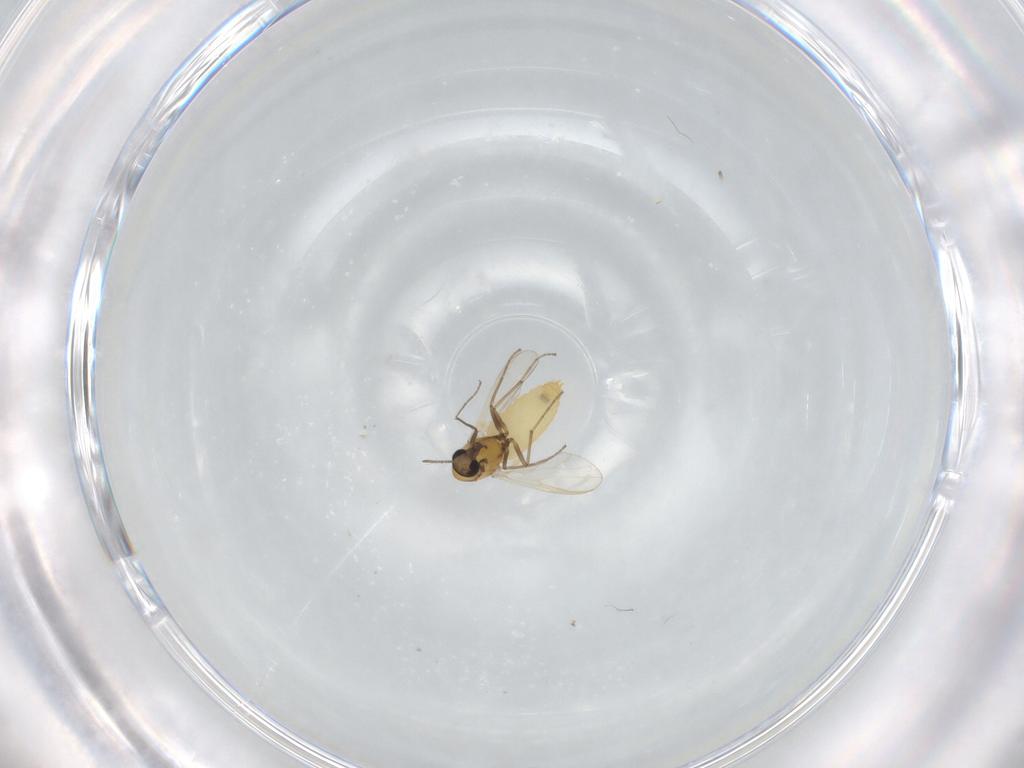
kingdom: Animalia
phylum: Arthropoda
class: Insecta
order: Diptera
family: Chironomidae
